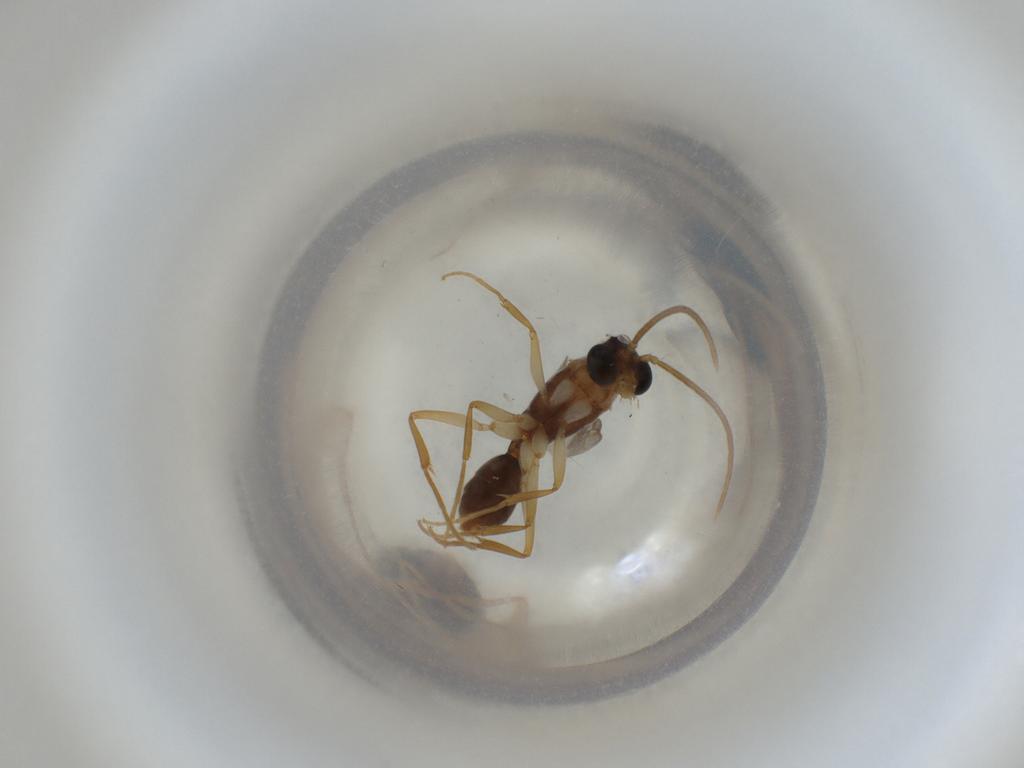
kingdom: Animalia
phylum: Arthropoda
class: Insecta
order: Hymenoptera
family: Formicidae
